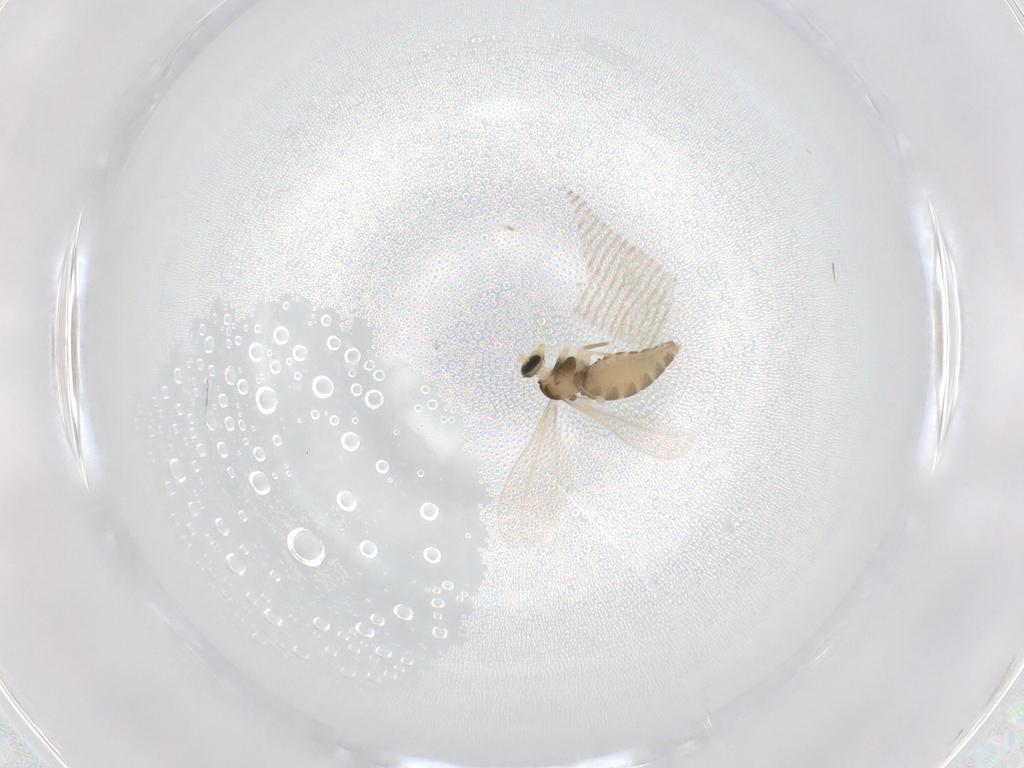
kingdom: Animalia
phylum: Arthropoda
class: Insecta
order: Diptera
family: Cecidomyiidae
